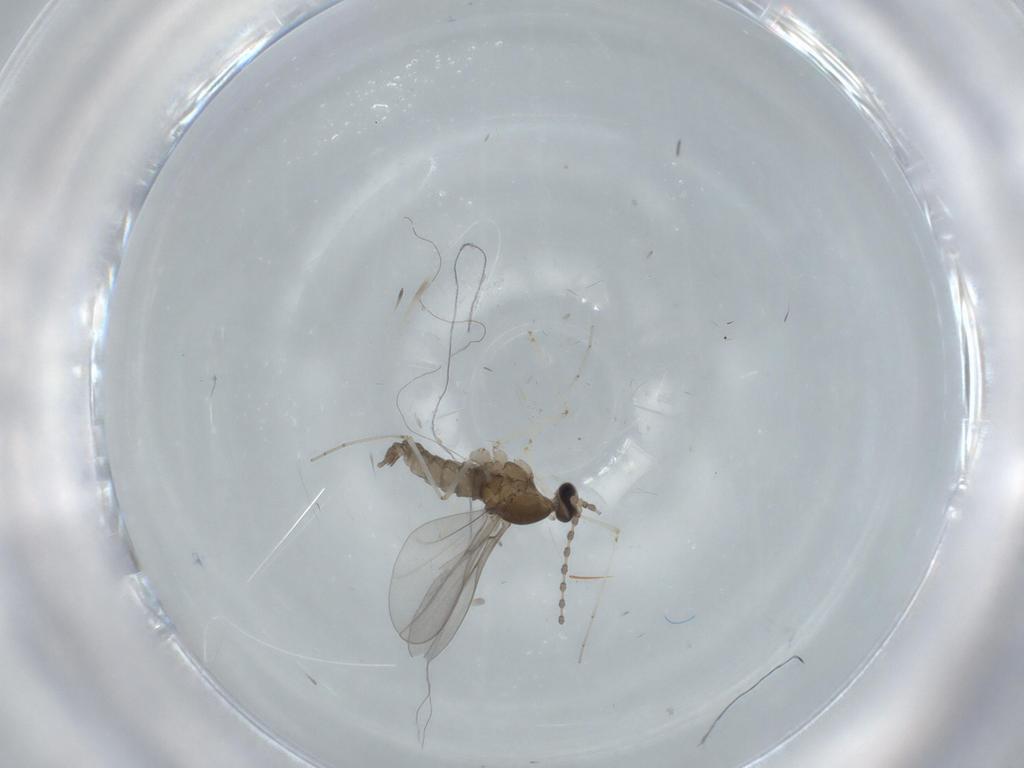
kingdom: Animalia
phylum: Arthropoda
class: Insecta
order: Diptera
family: Cecidomyiidae
